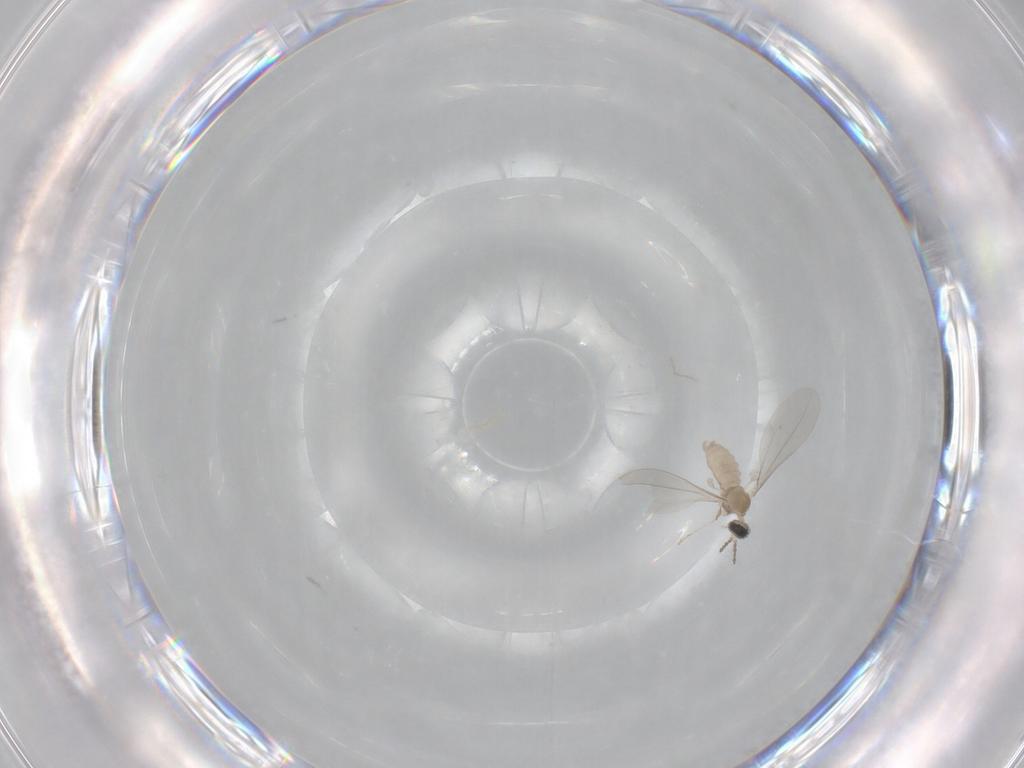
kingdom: Animalia
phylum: Arthropoda
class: Insecta
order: Diptera
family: Cecidomyiidae
